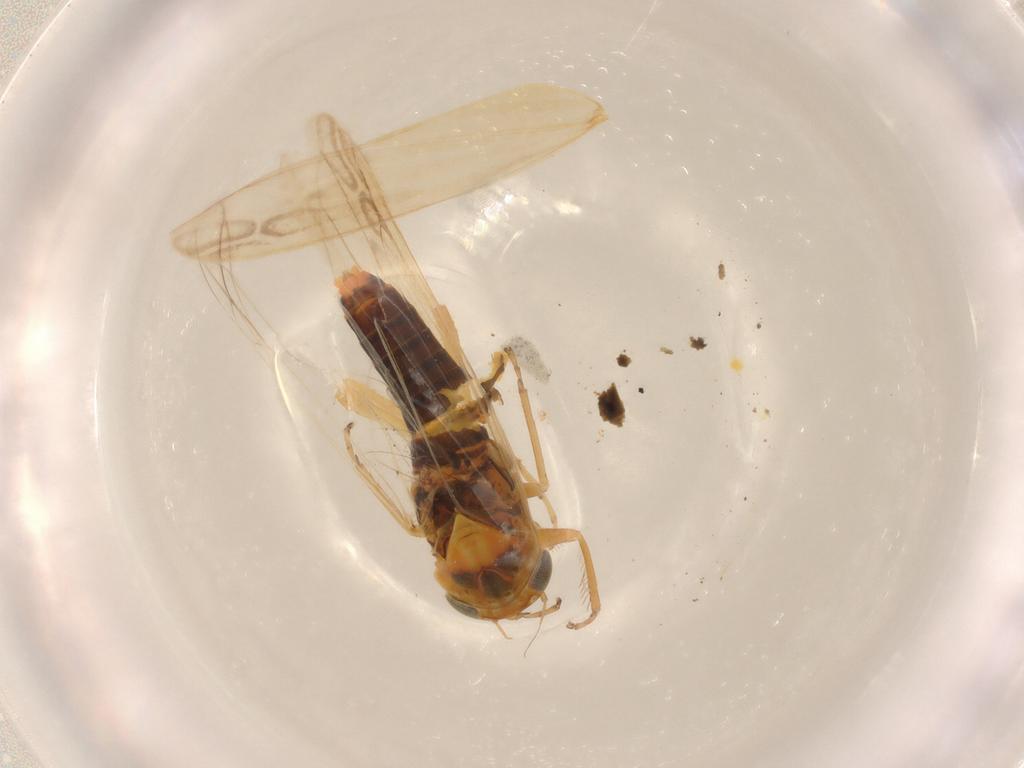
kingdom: Animalia
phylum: Arthropoda
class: Insecta
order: Hemiptera
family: Cicadellidae
